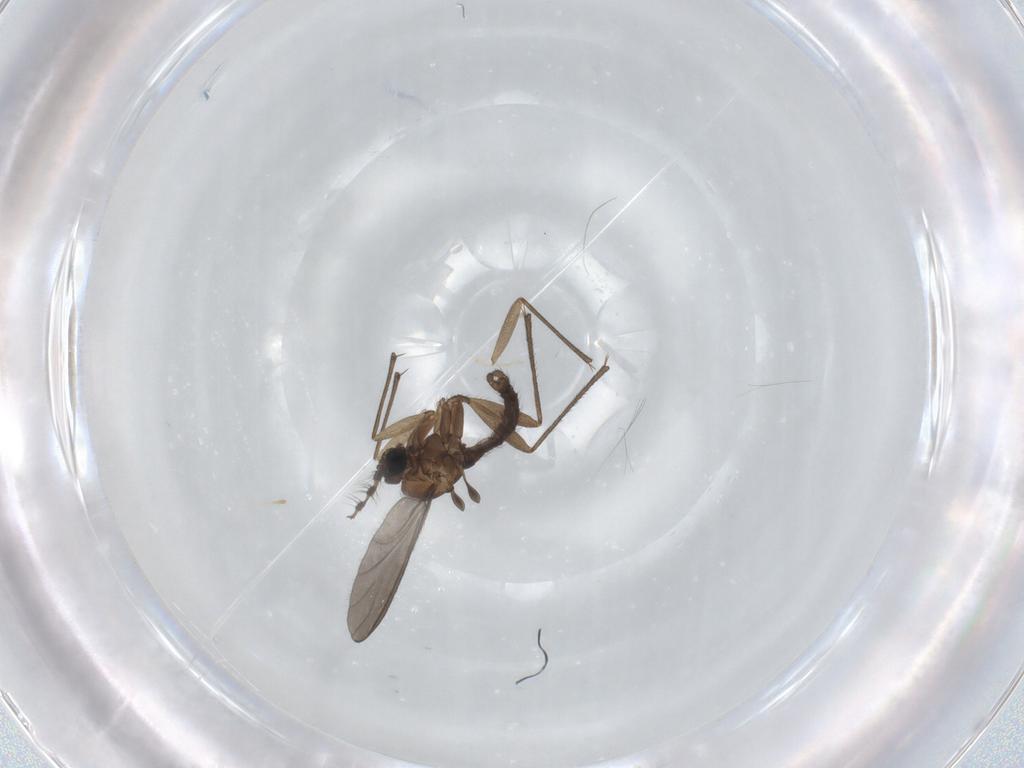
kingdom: Animalia
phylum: Arthropoda
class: Insecta
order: Diptera
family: Sciaridae
